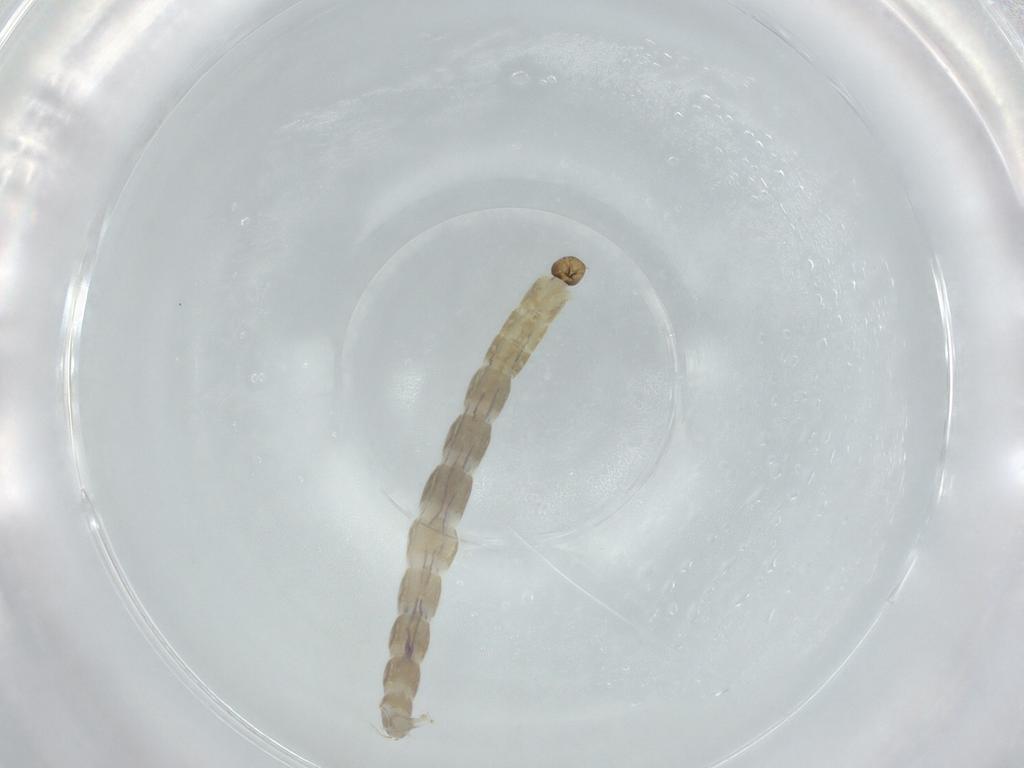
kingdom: Animalia
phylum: Arthropoda
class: Insecta
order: Diptera
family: Chironomidae
